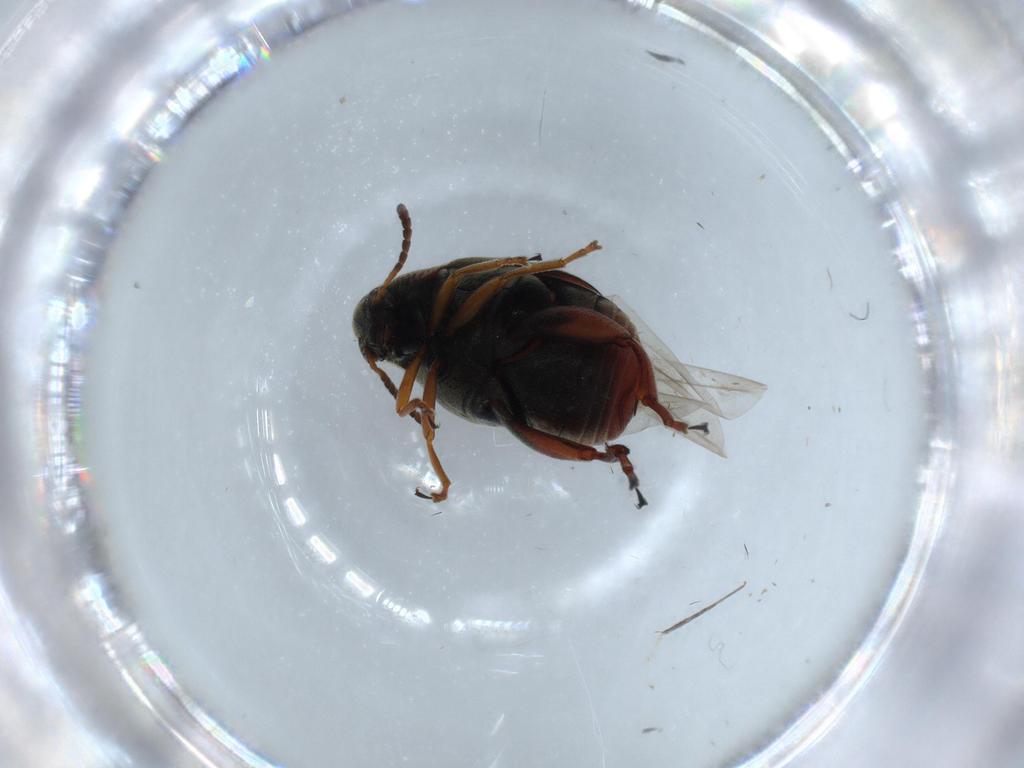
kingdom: Animalia
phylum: Arthropoda
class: Insecta
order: Coleoptera
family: Chrysomelidae
